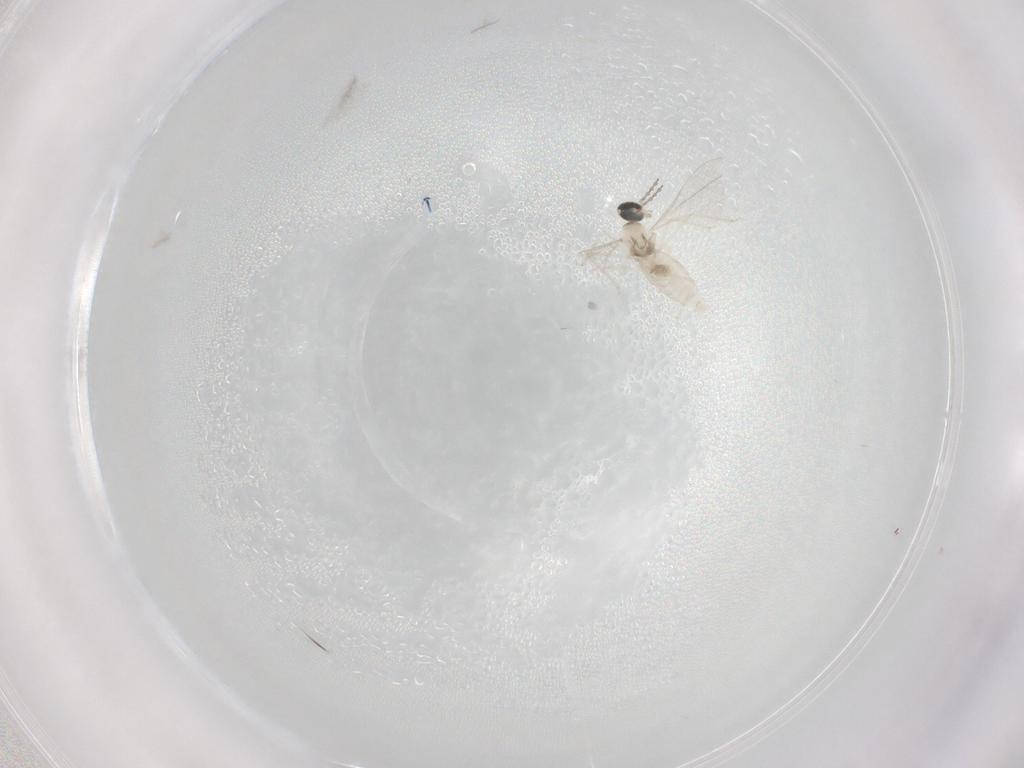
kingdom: Animalia
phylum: Arthropoda
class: Insecta
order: Diptera
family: Cecidomyiidae
